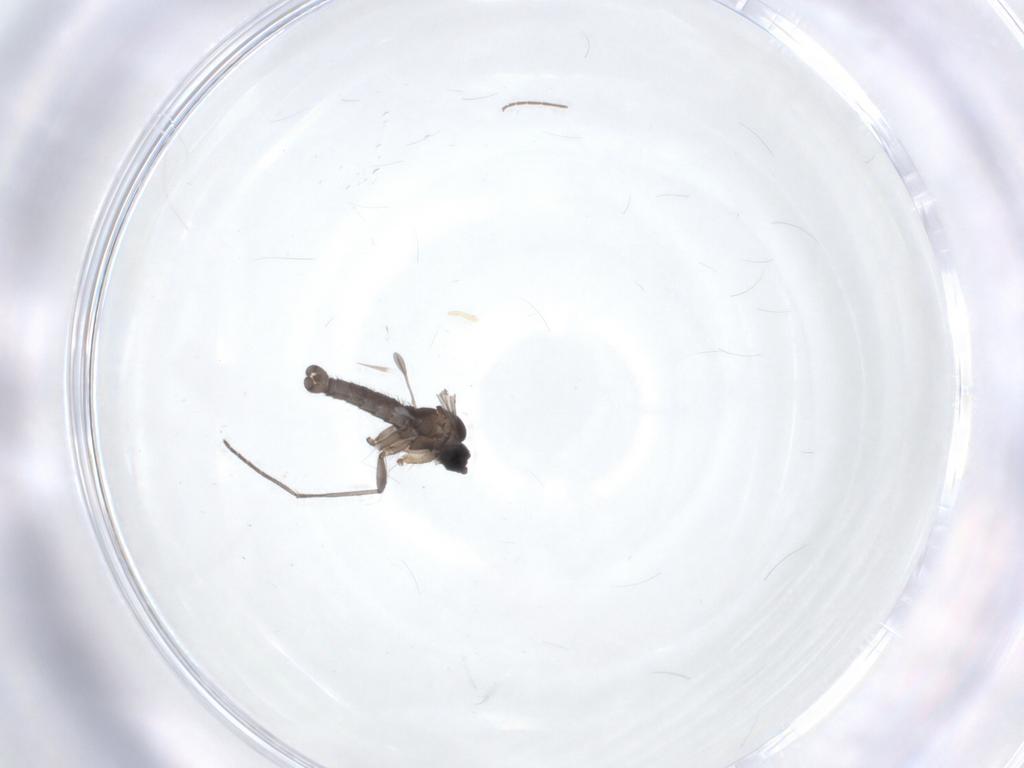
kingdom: Animalia
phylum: Arthropoda
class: Insecta
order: Diptera
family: Sciaridae
